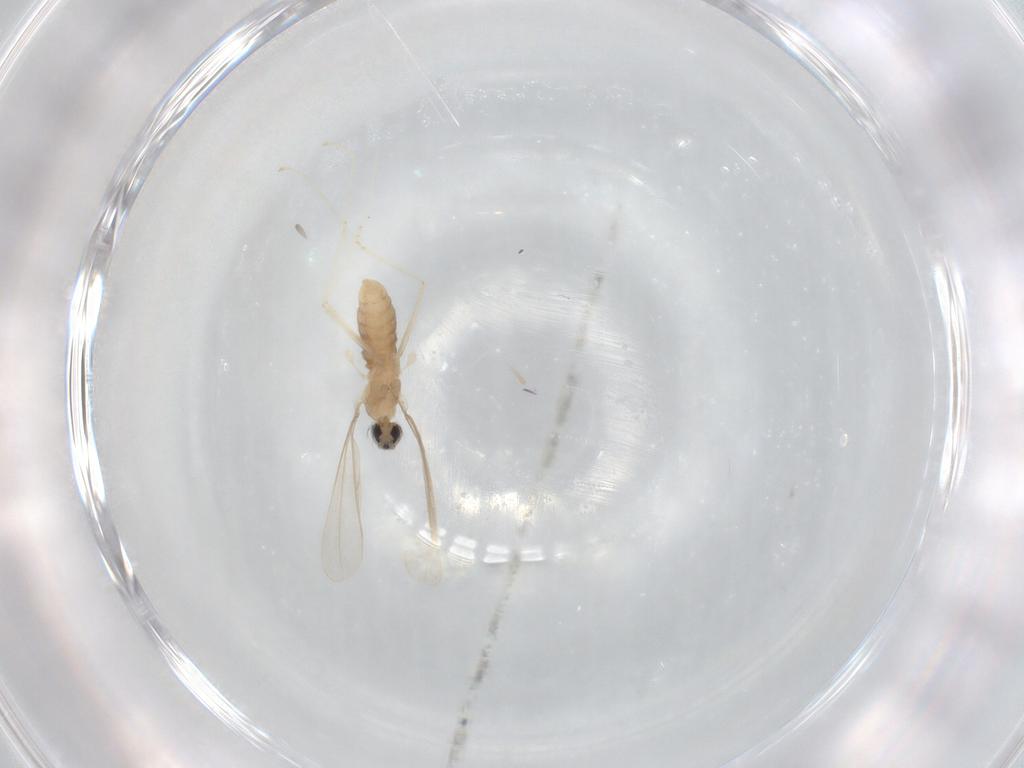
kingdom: Animalia
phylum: Arthropoda
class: Insecta
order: Diptera
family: Cecidomyiidae
